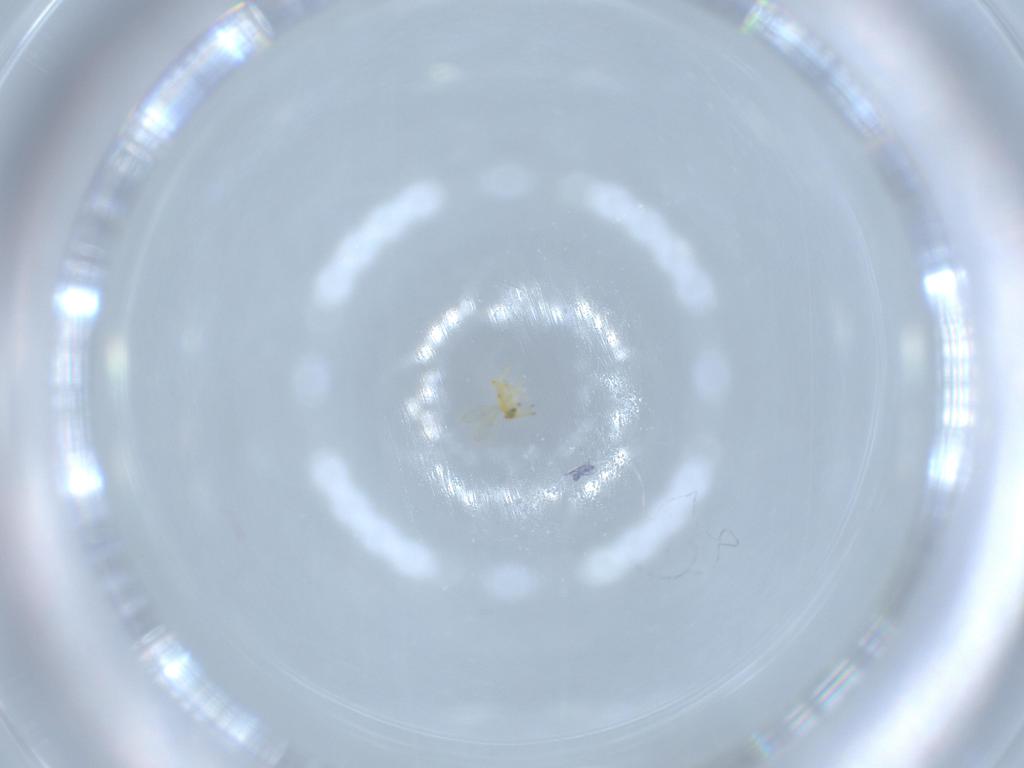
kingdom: Animalia
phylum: Arthropoda
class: Insecta
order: Hymenoptera
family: Aphelinidae
